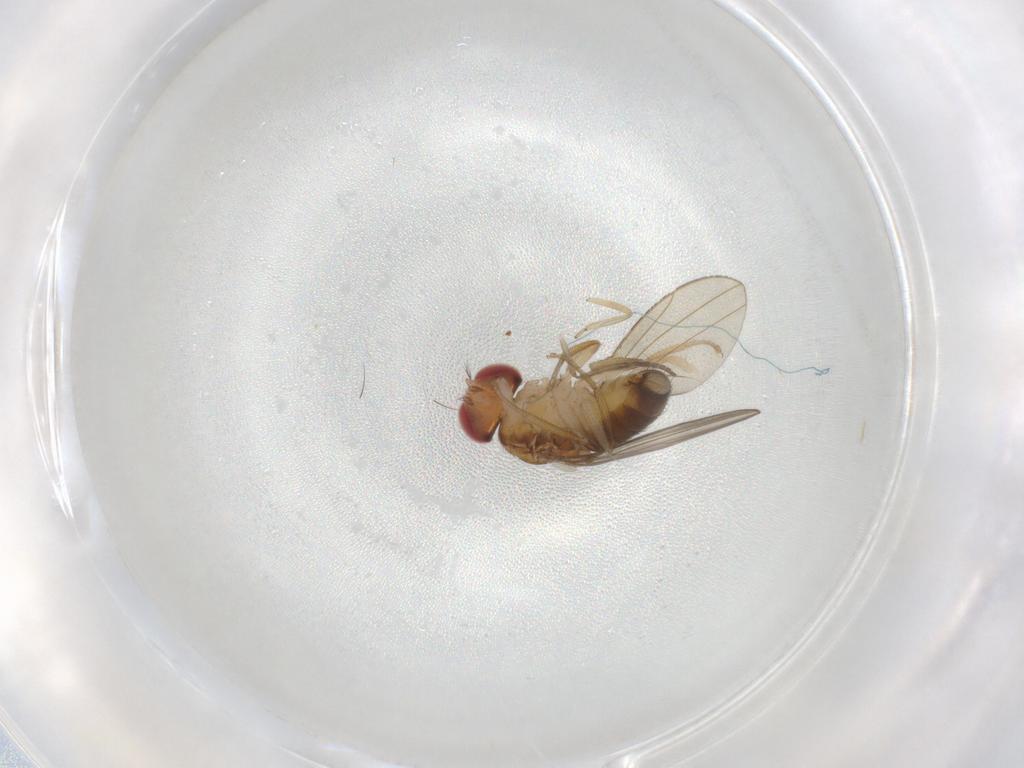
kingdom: Animalia
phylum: Arthropoda
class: Insecta
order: Diptera
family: Drosophilidae
